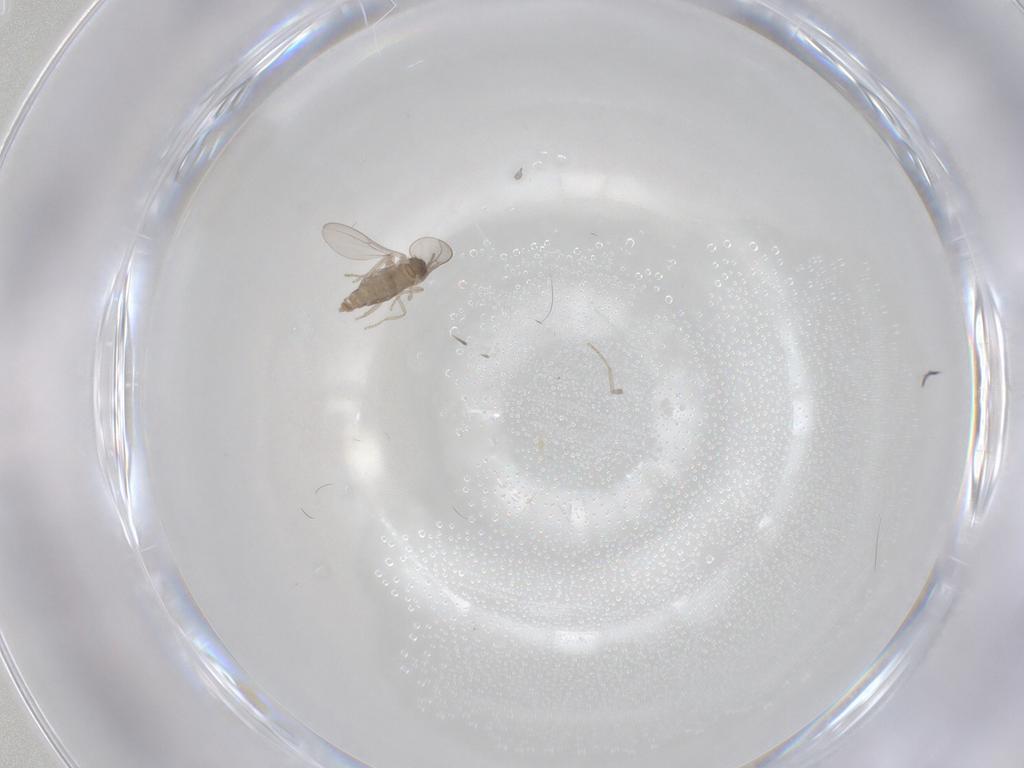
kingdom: Animalia
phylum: Arthropoda
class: Insecta
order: Diptera
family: Cecidomyiidae
